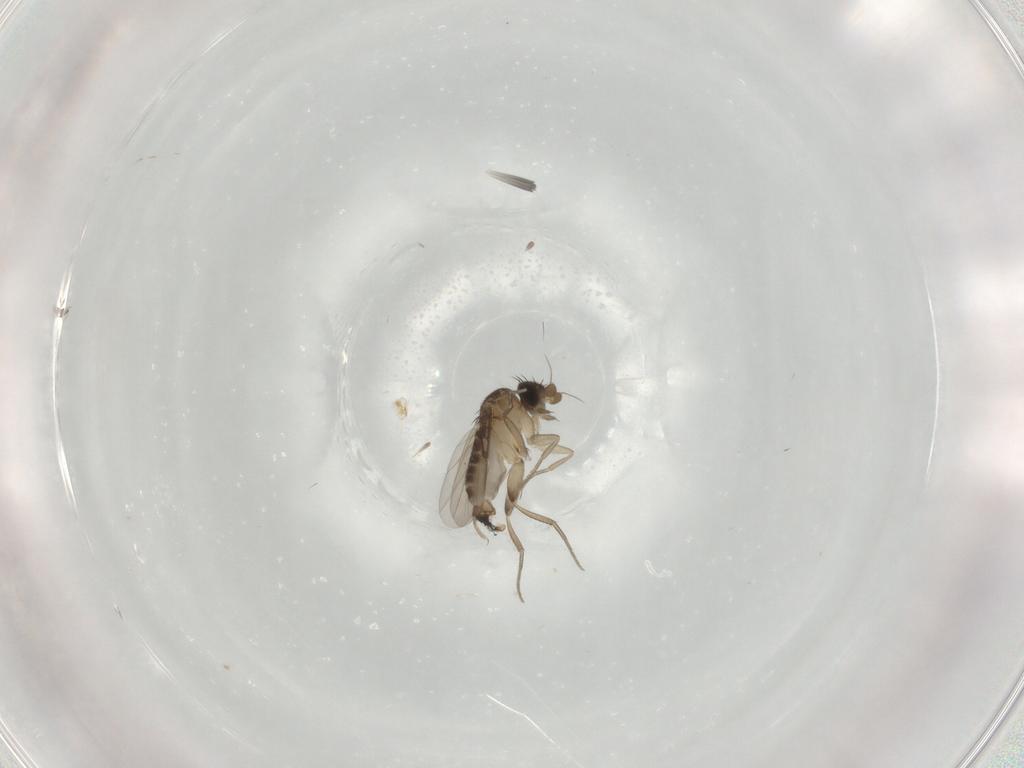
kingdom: Animalia
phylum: Arthropoda
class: Insecta
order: Diptera
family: Phoridae
